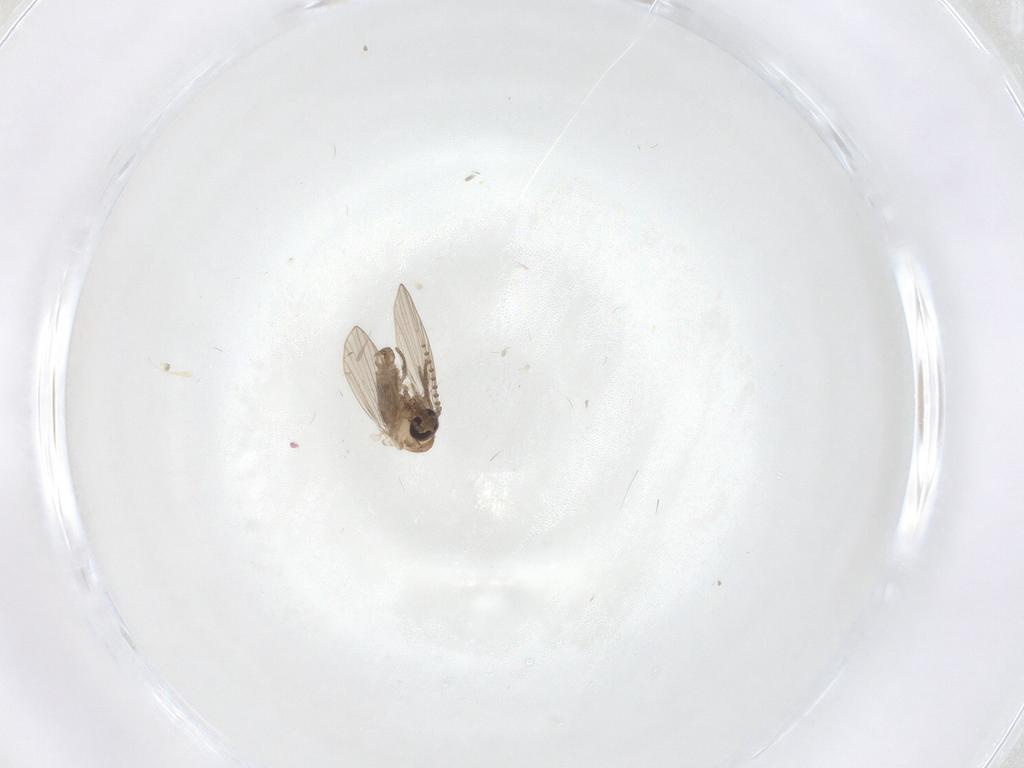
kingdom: Animalia
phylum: Arthropoda
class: Insecta
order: Diptera
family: Psychodidae
